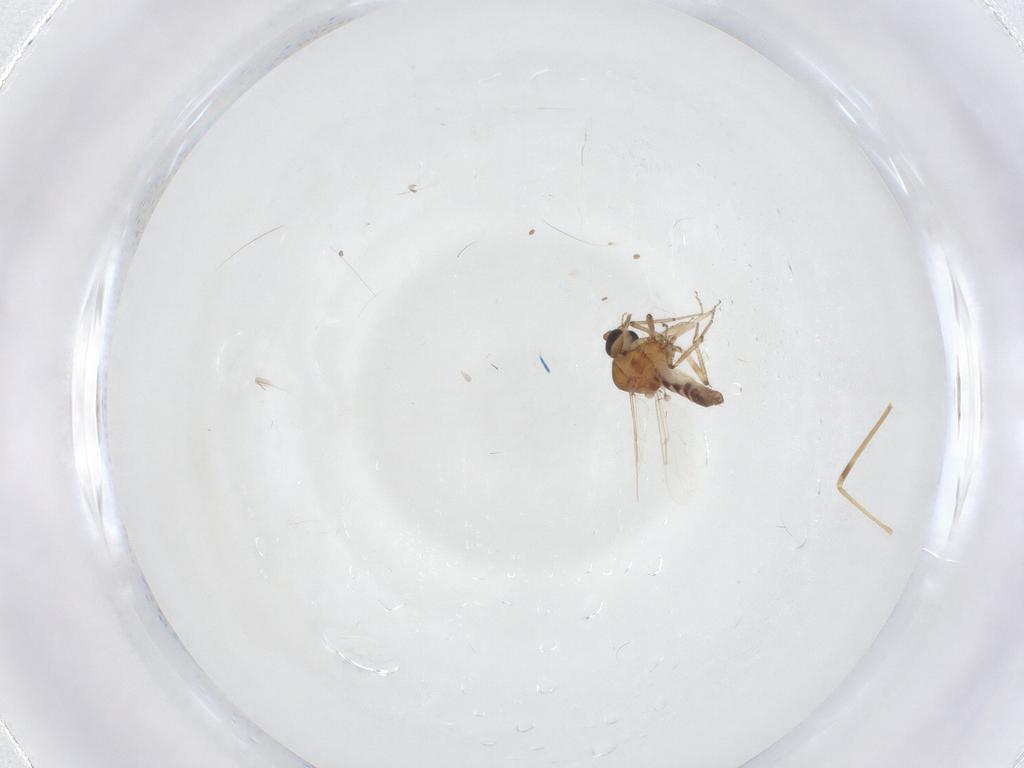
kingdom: Animalia
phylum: Arthropoda
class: Insecta
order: Diptera
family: Ceratopogonidae
